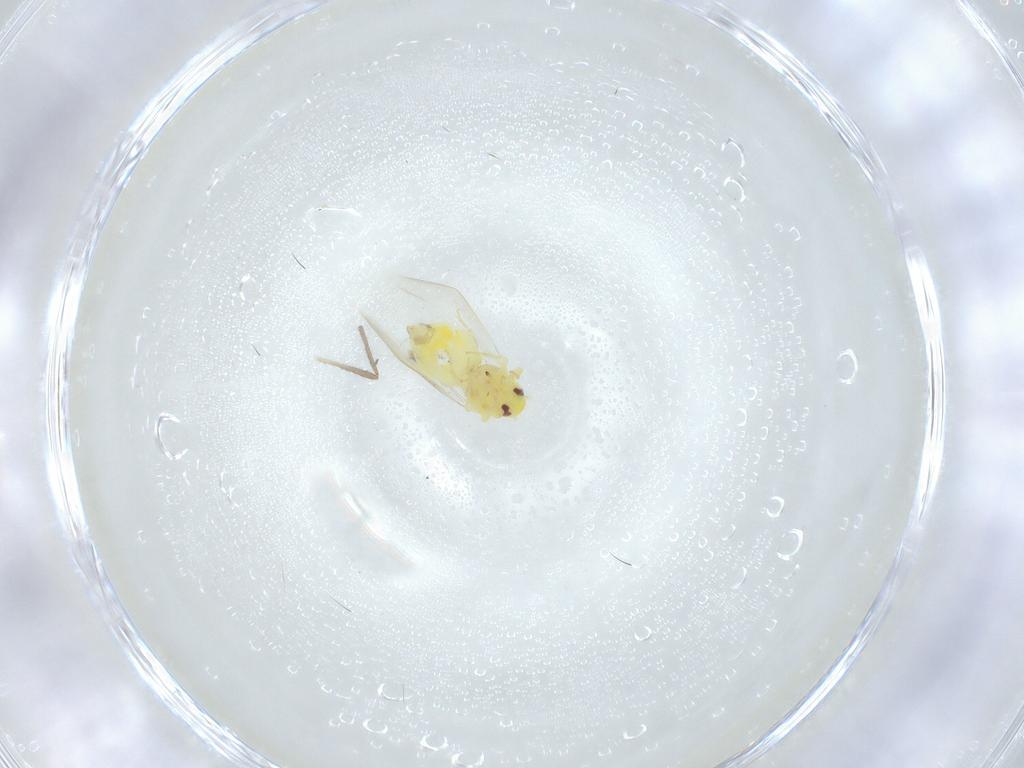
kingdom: Animalia
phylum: Arthropoda
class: Insecta
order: Hemiptera
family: Aleyrodidae
